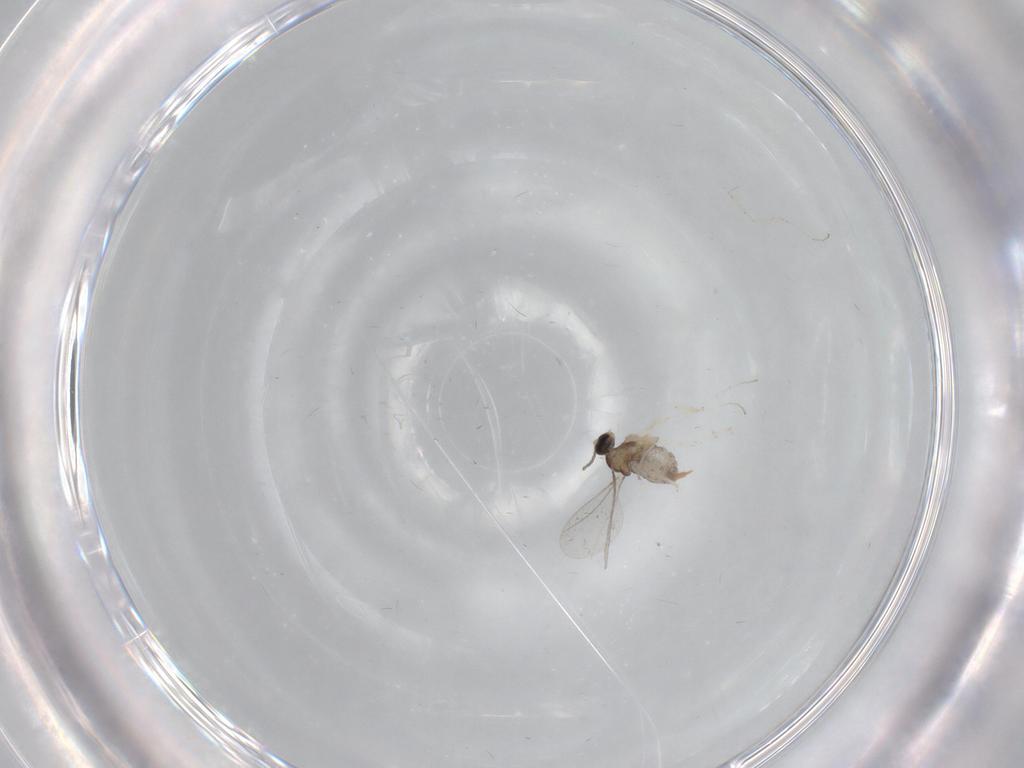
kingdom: Animalia
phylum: Arthropoda
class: Insecta
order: Diptera
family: Cecidomyiidae
